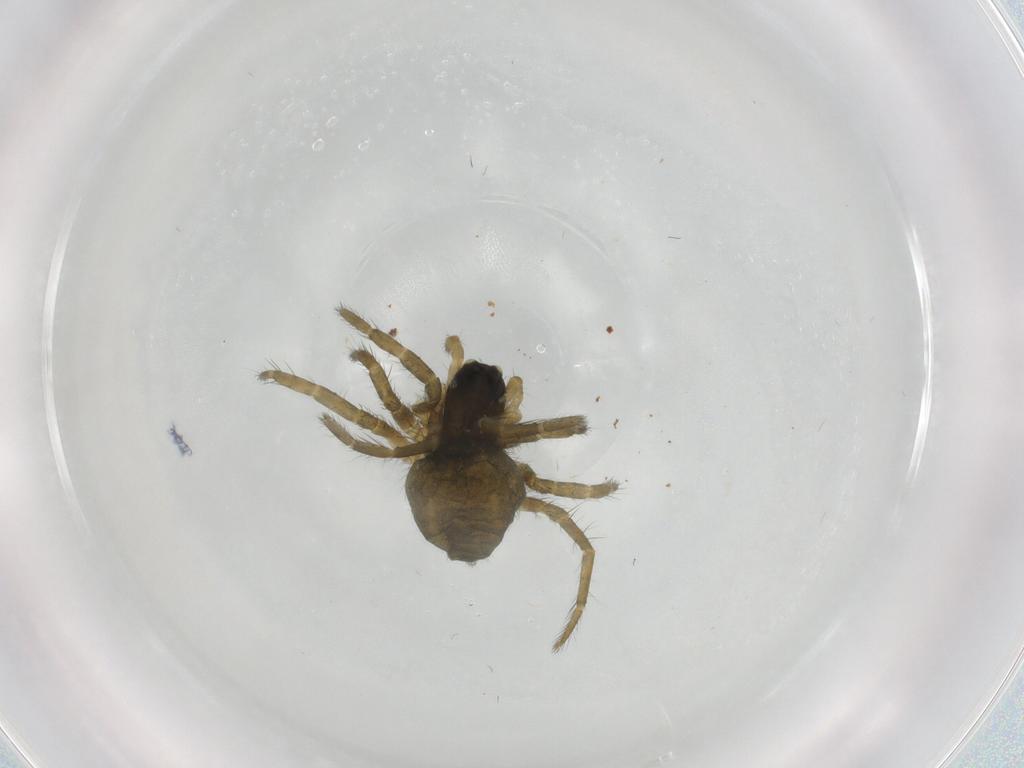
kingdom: Animalia
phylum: Arthropoda
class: Arachnida
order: Araneae
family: Lycosidae
